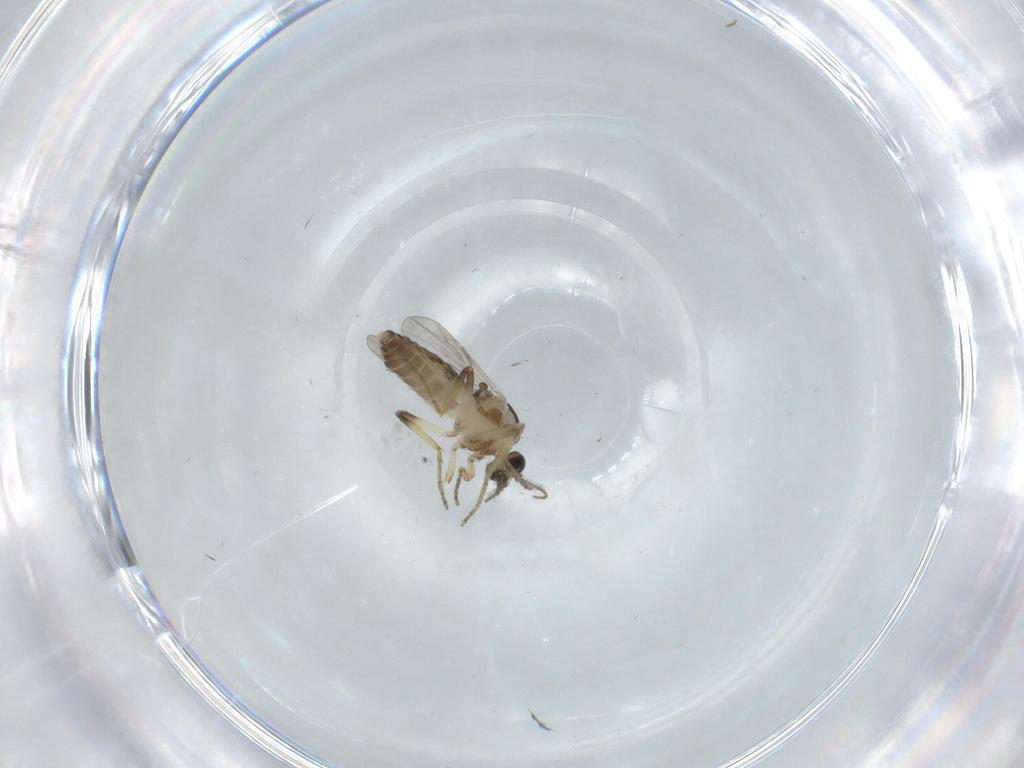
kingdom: Animalia
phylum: Arthropoda
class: Insecta
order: Diptera
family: Ceratopogonidae
